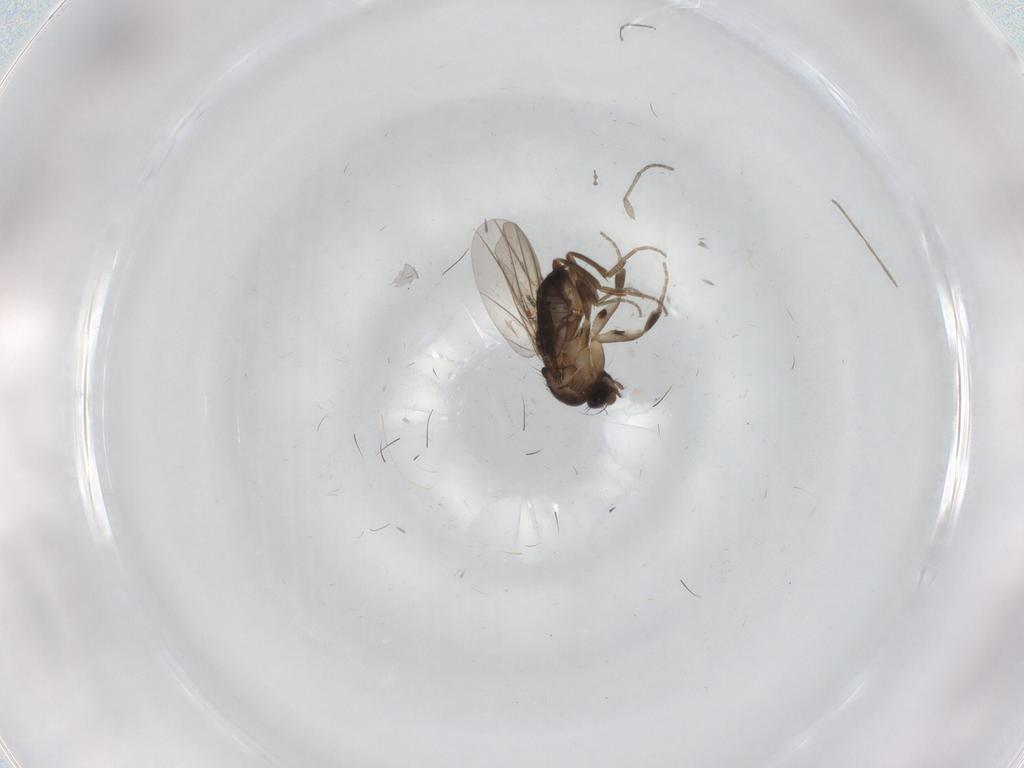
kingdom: Animalia
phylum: Arthropoda
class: Insecta
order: Diptera
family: Phoridae
